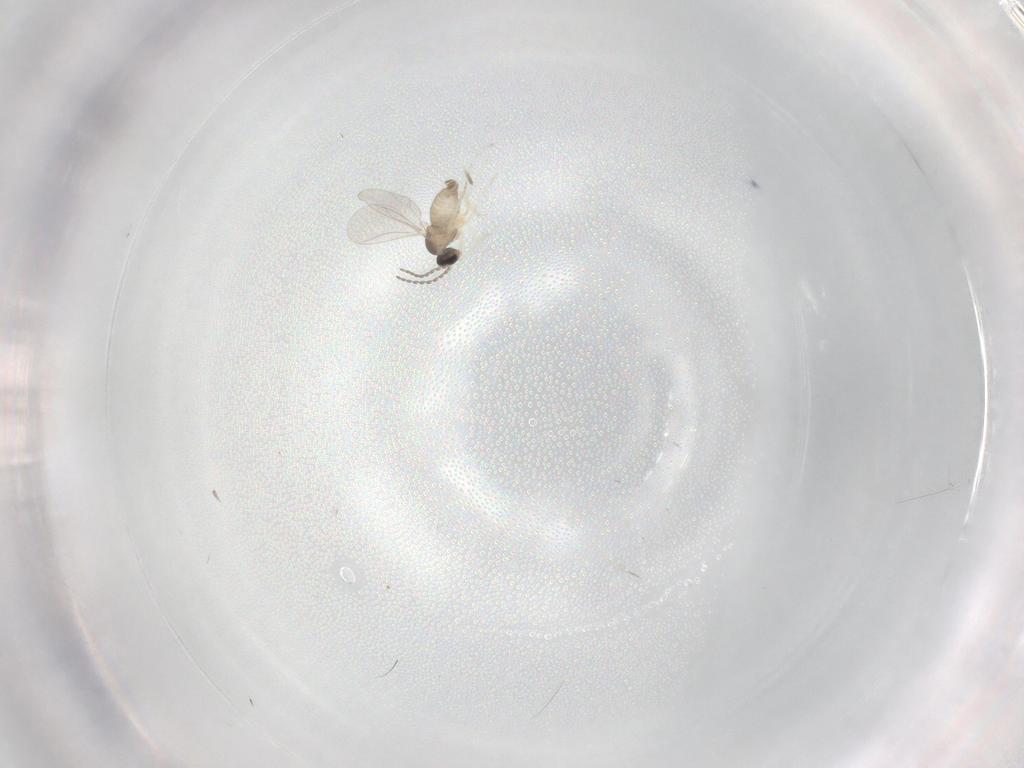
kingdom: Animalia
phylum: Arthropoda
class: Insecta
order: Diptera
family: Cecidomyiidae
